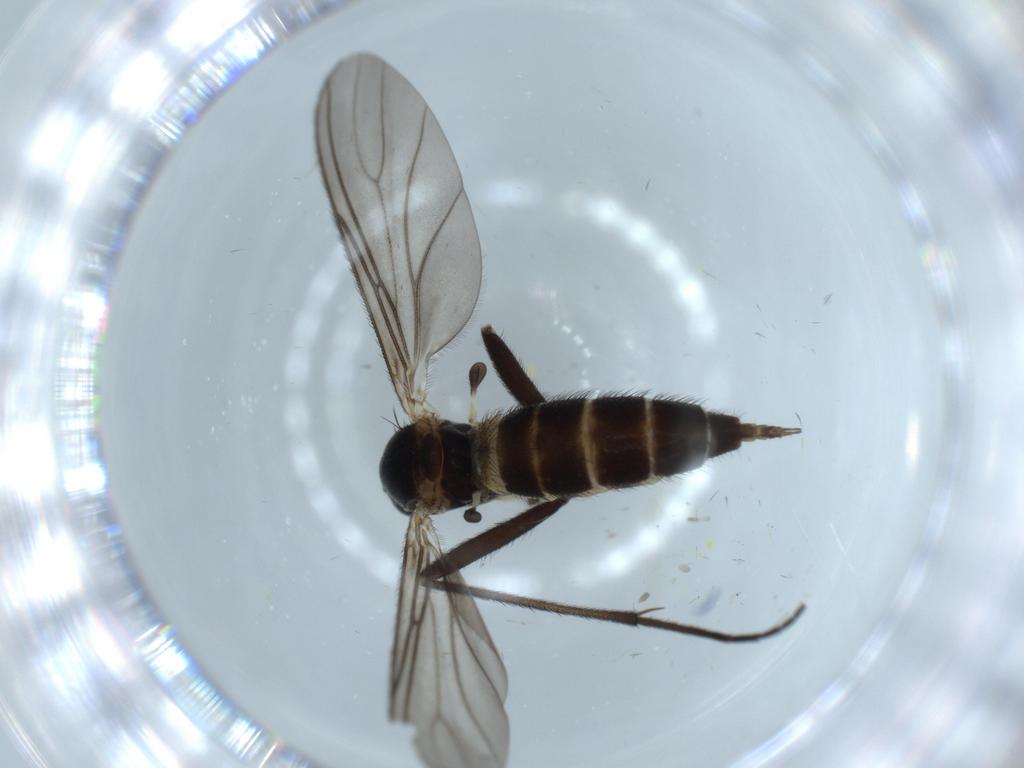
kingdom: Animalia
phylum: Arthropoda
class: Insecta
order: Diptera
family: Sciaridae
